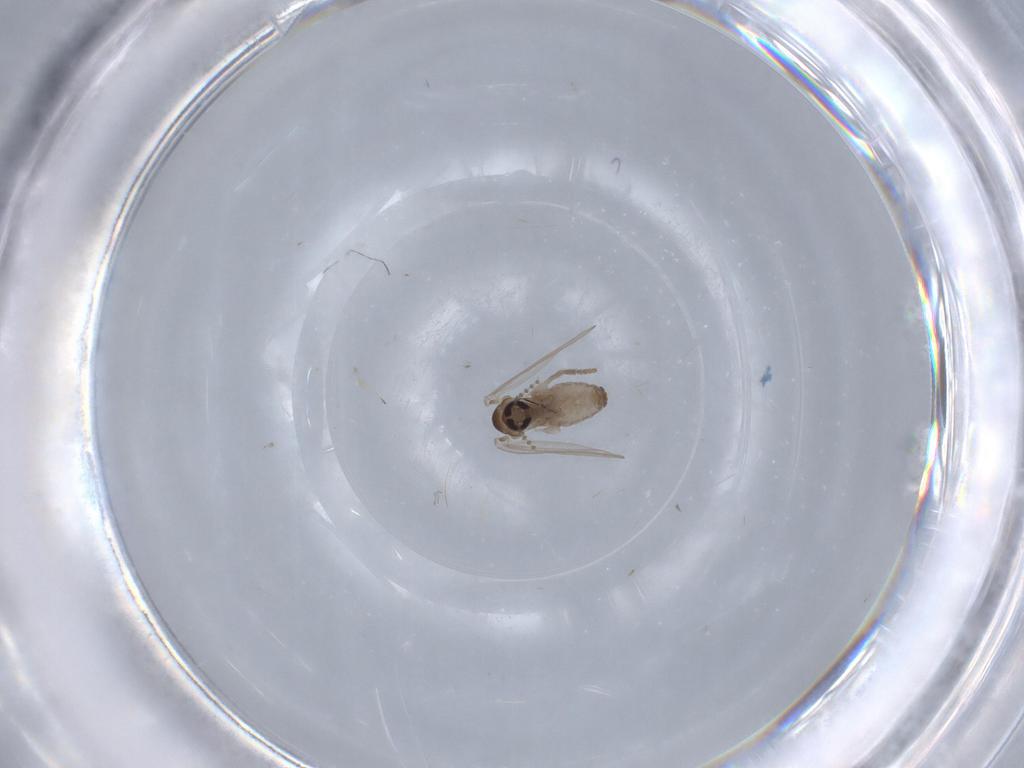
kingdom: Animalia
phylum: Arthropoda
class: Insecta
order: Diptera
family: Psychodidae
